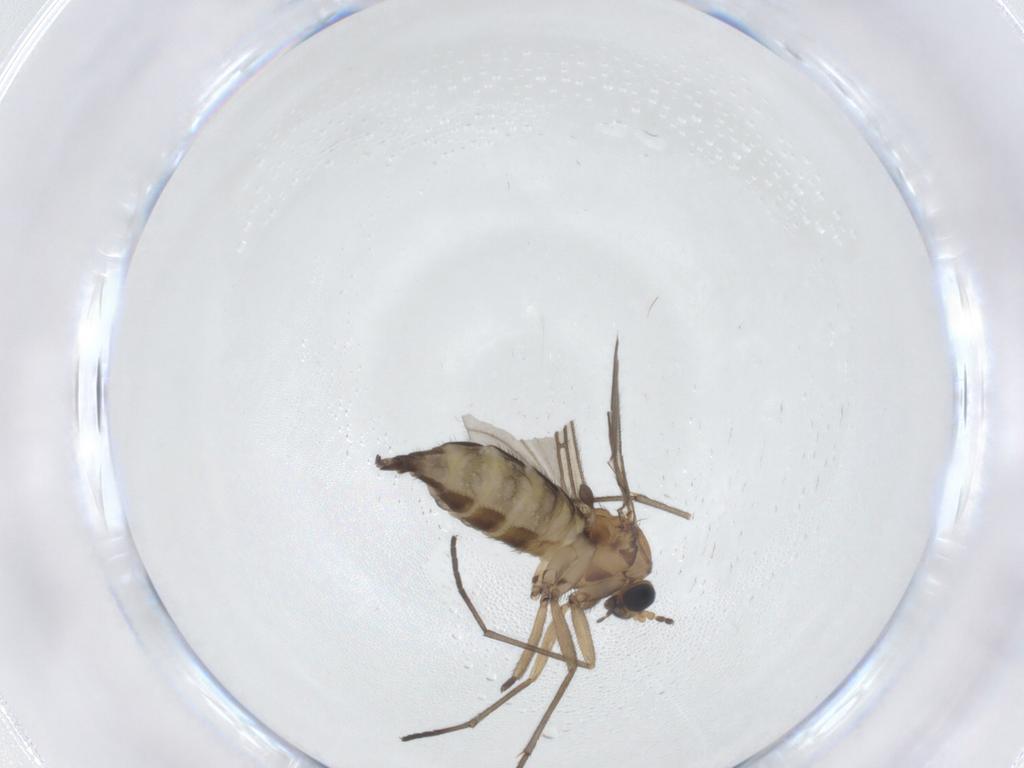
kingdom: Animalia
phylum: Arthropoda
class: Insecta
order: Diptera
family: Sciaridae
